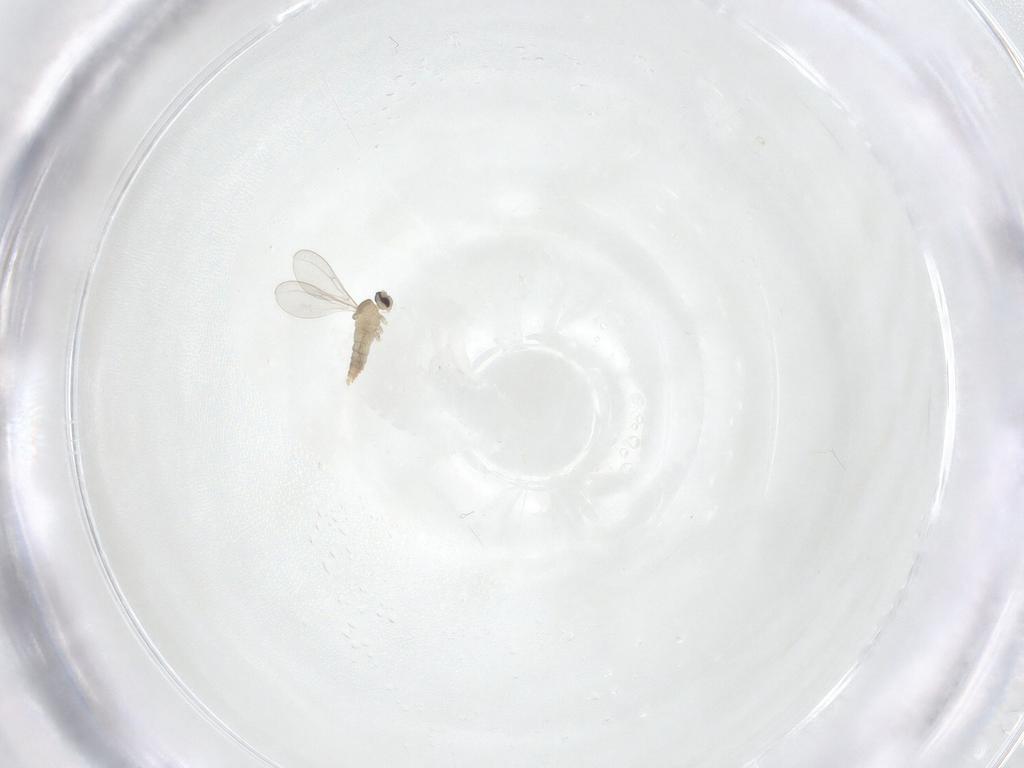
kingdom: Animalia
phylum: Arthropoda
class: Insecta
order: Diptera
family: Cecidomyiidae
